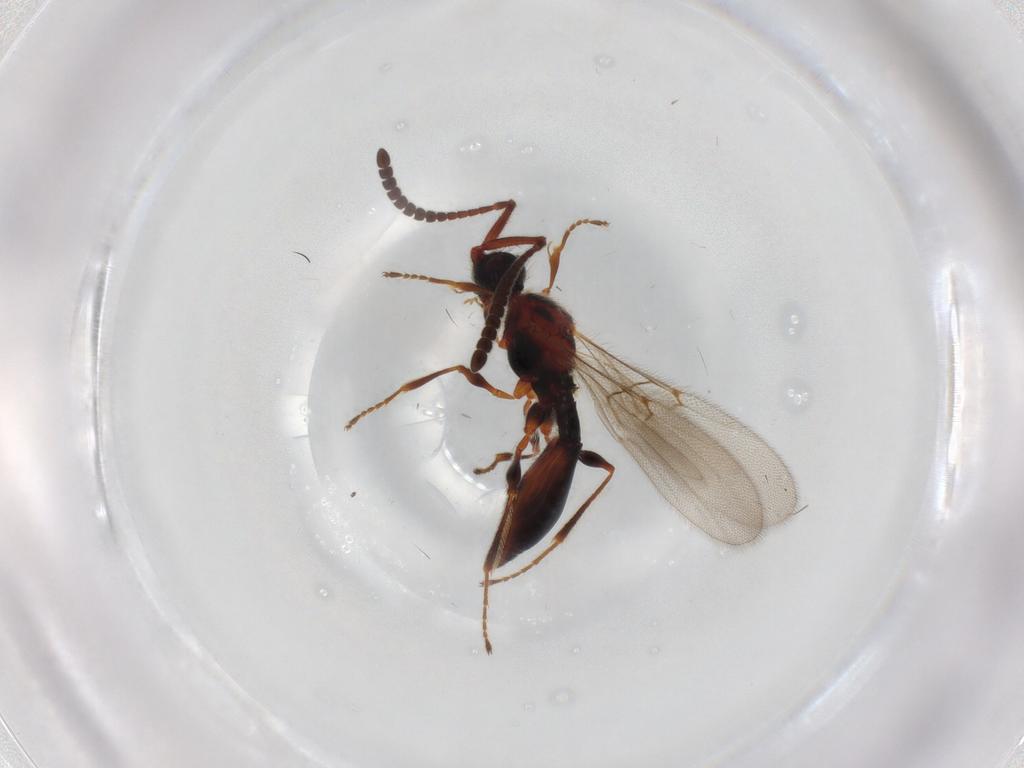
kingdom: Animalia
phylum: Arthropoda
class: Insecta
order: Hymenoptera
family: Diapriidae
